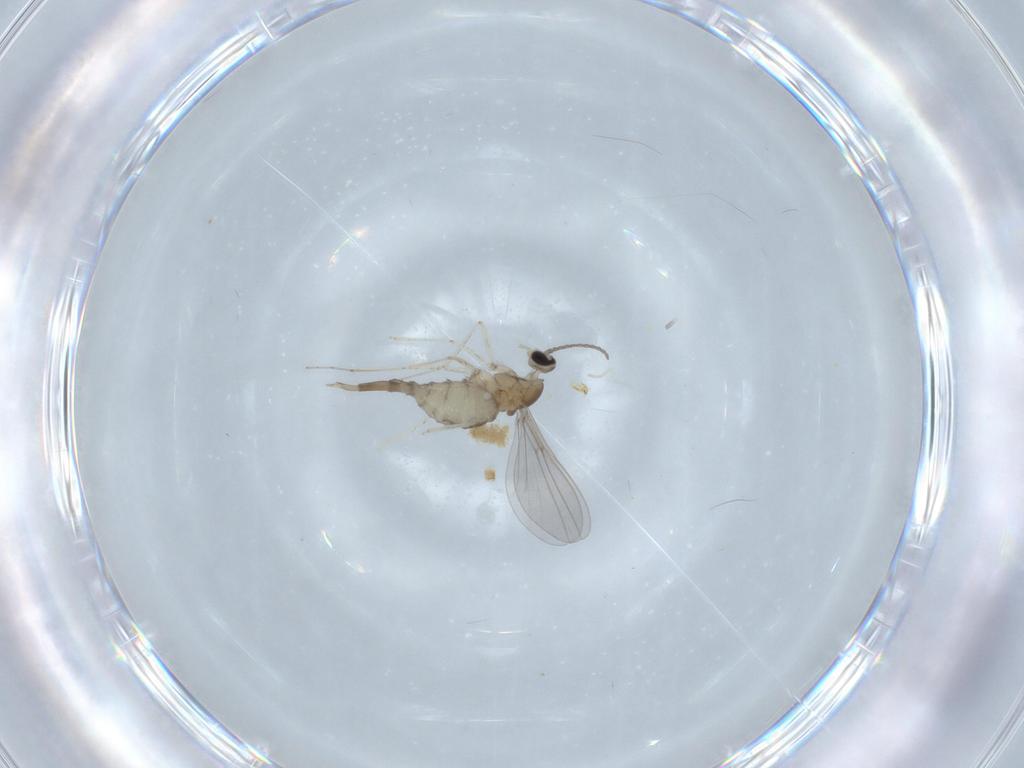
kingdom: Animalia
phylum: Arthropoda
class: Insecta
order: Diptera
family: Cecidomyiidae
